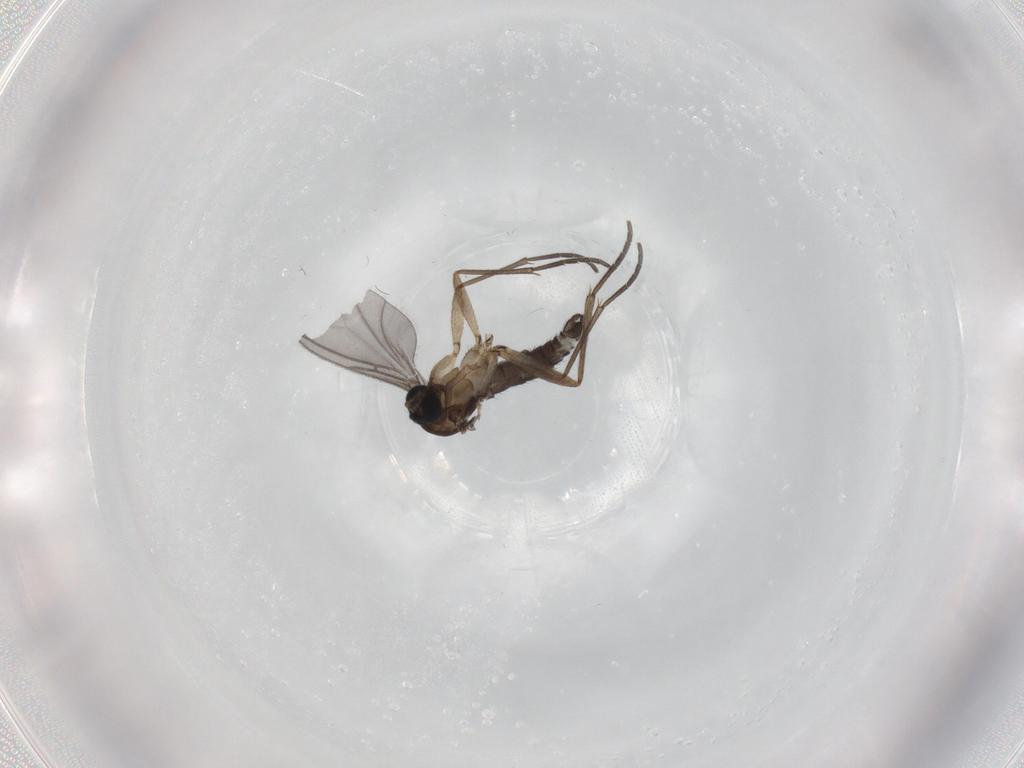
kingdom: Animalia
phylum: Arthropoda
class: Insecta
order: Diptera
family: Sciaridae
